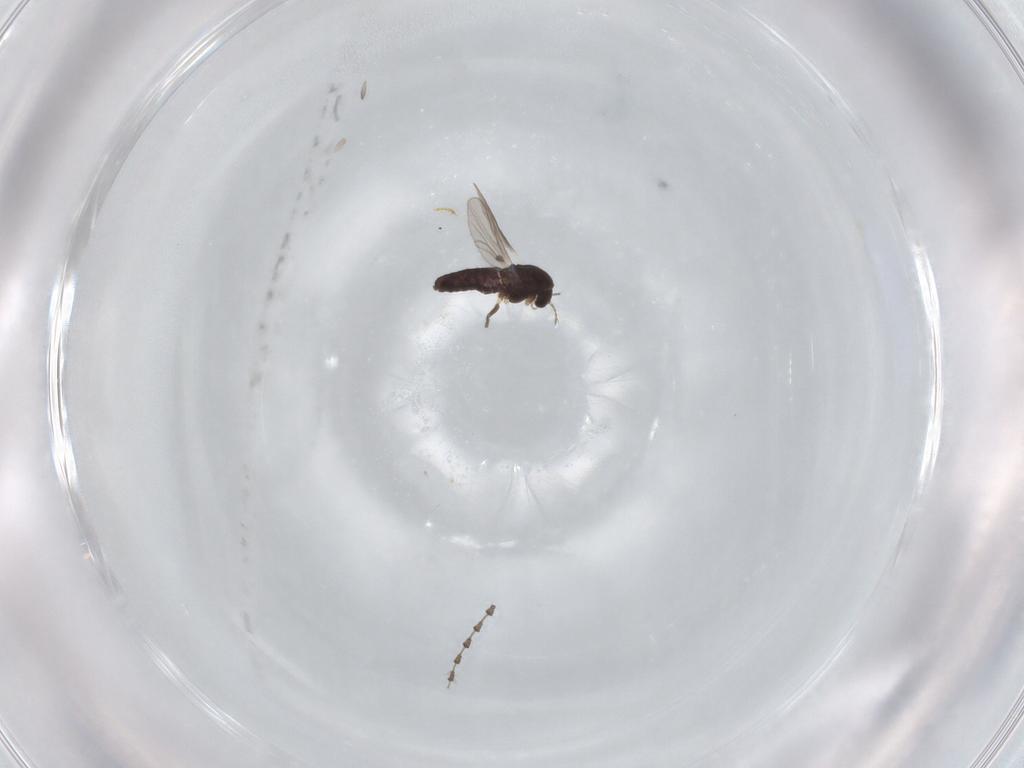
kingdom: Animalia
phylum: Arthropoda
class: Insecta
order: Diptera
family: Chironomidae
